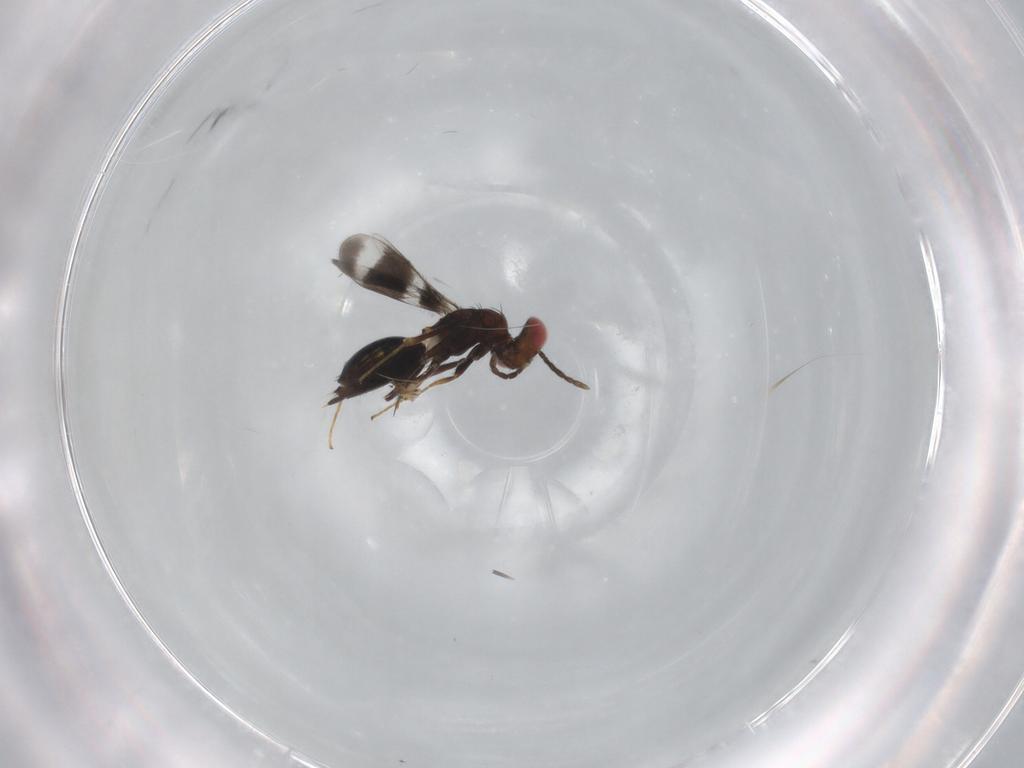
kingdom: Animalia
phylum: Arthropoda
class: Insecta
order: Hymenoptera
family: Eulophidae
